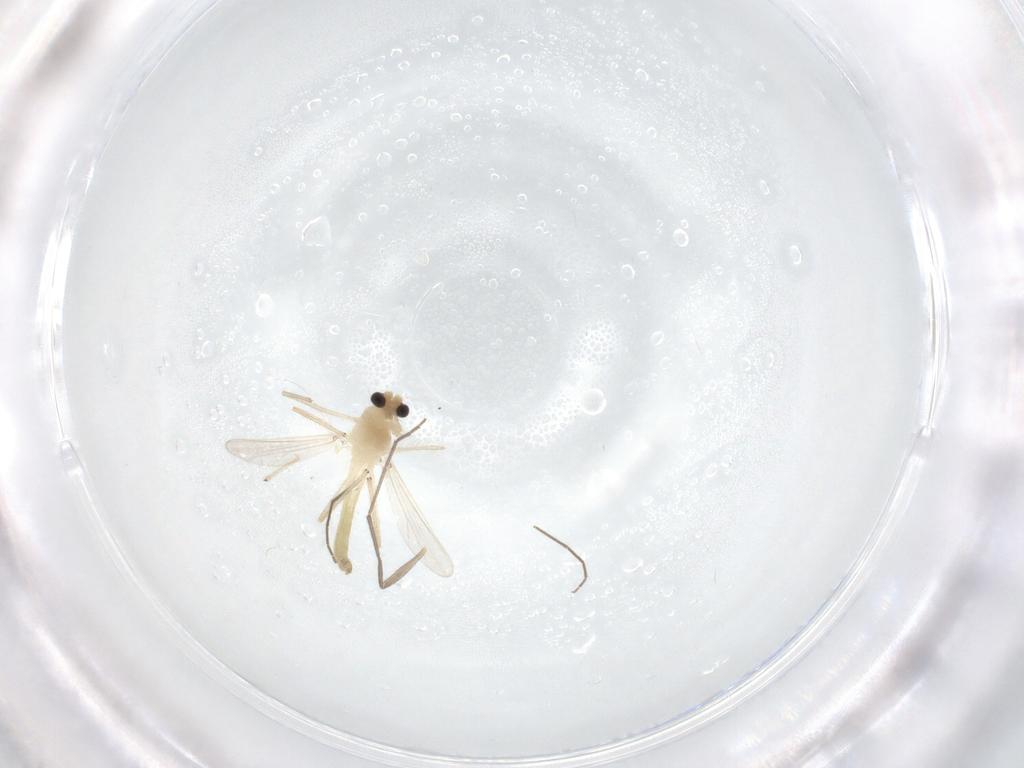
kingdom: Animalia
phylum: Arthropoda
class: Insecta
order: Diptera
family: Chironomidae
